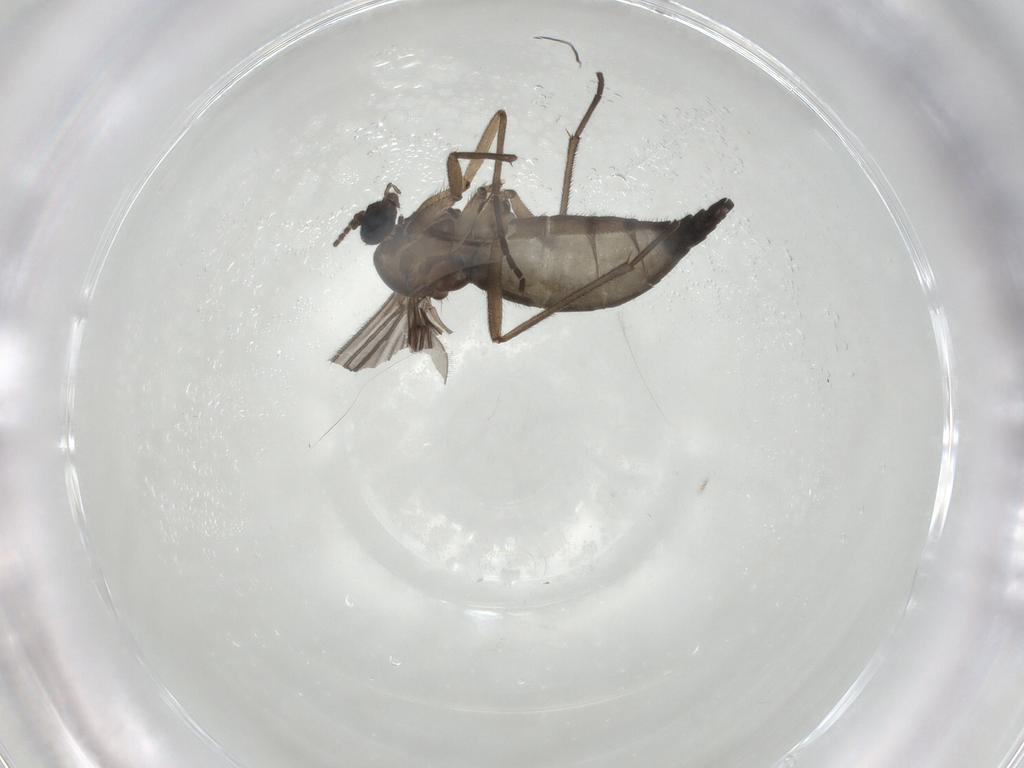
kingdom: Animalia
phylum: Arthropoda
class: Insecta
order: Diptera
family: Sciaridae
